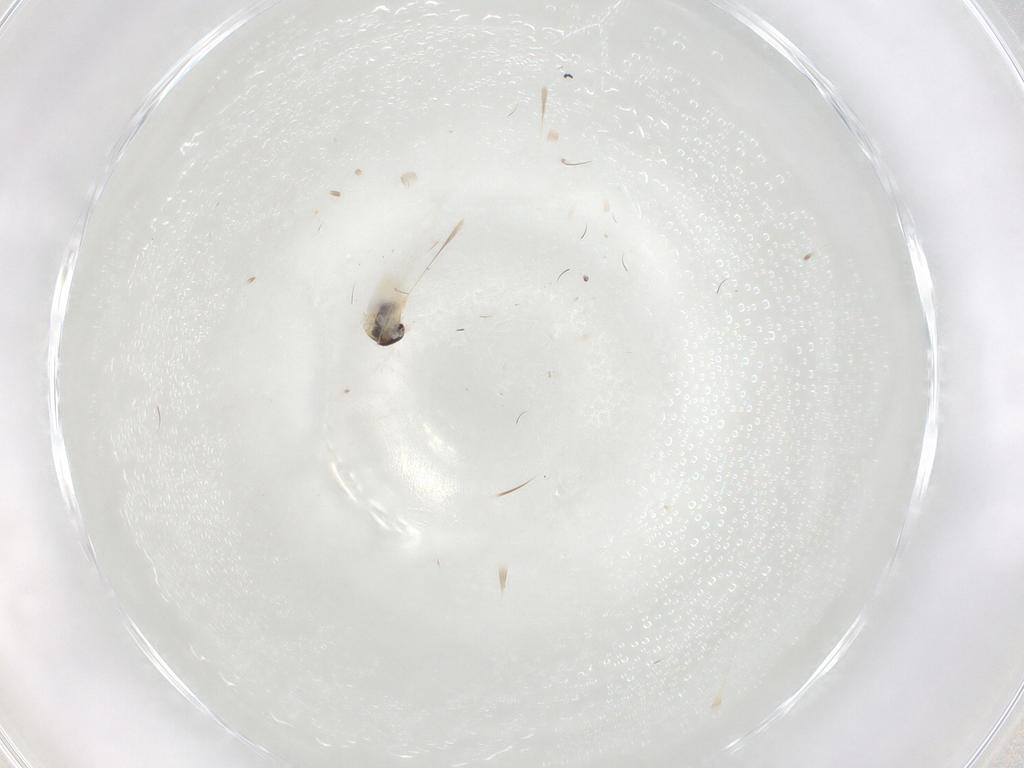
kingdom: Animalia
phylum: Arthropoda
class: Insecta
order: Psocodea
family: Trichopsocidae
